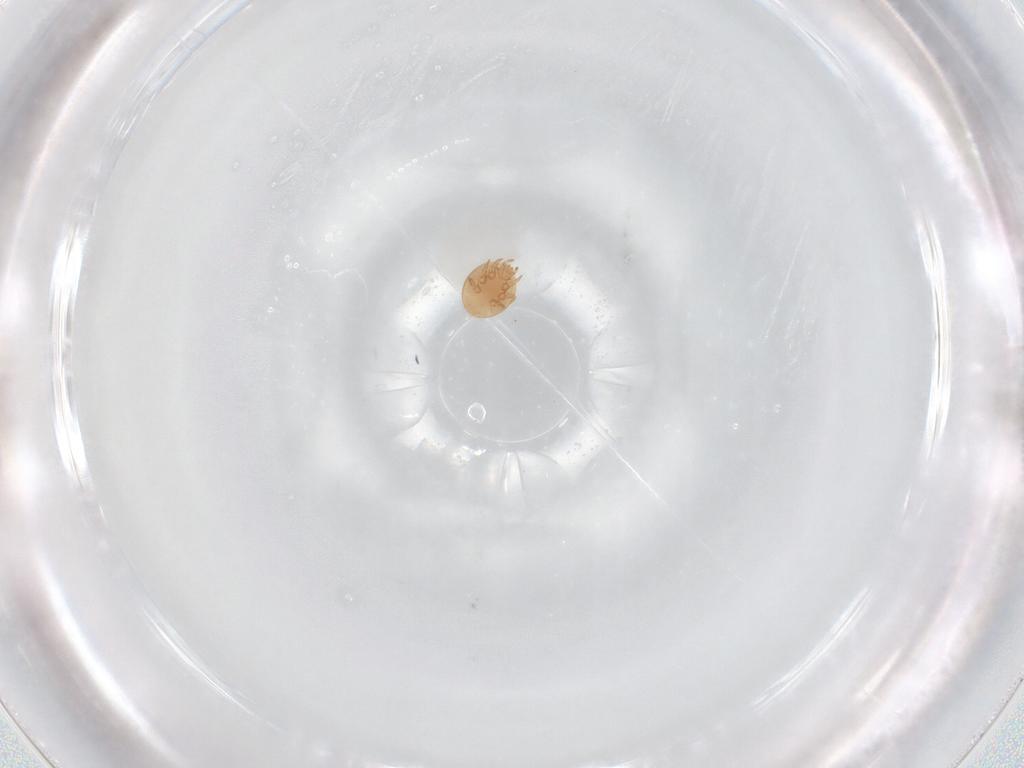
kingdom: Animalia
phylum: Arthropoda
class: Arachnida
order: Mesostigmata
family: Trematuridae
